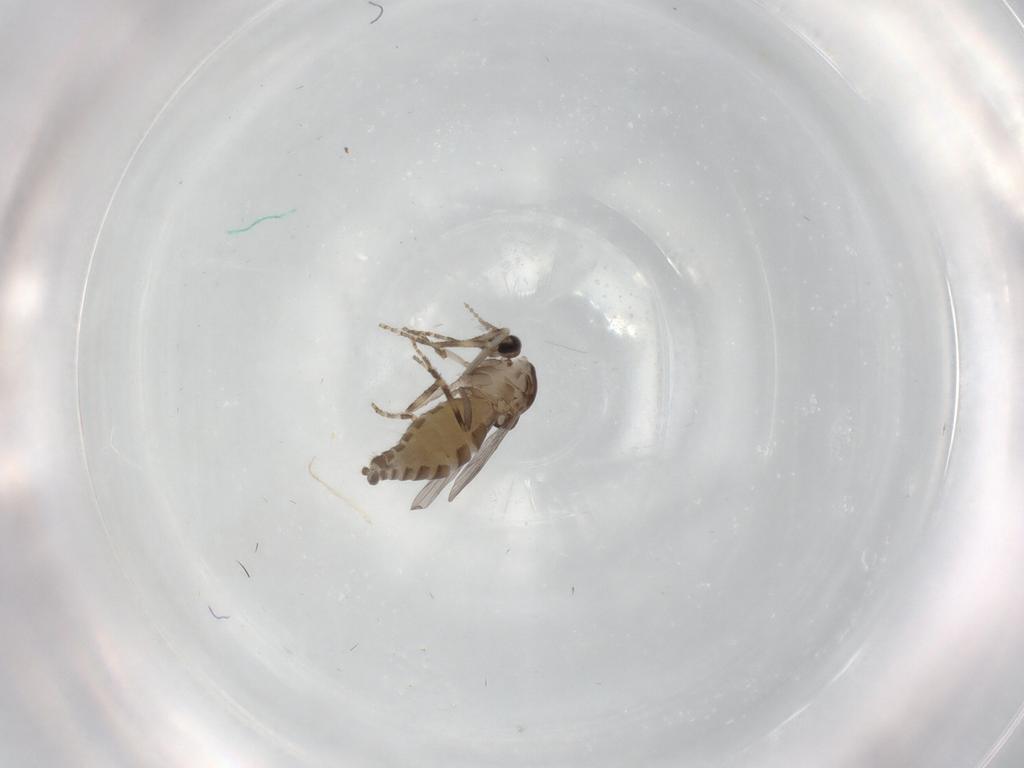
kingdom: Animalia
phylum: Arthropoda
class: Insecta
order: Diptera
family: Ceratopogonidae
